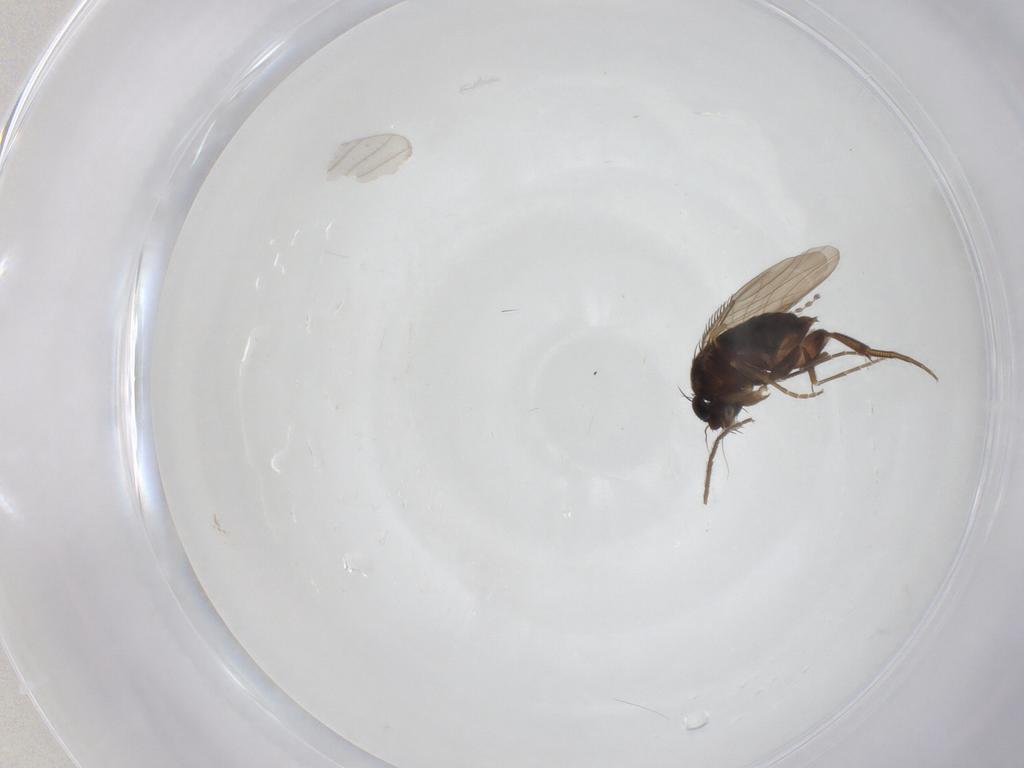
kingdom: Animalia
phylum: Arthropoda
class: Insecta
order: Diptera
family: Phoridae
